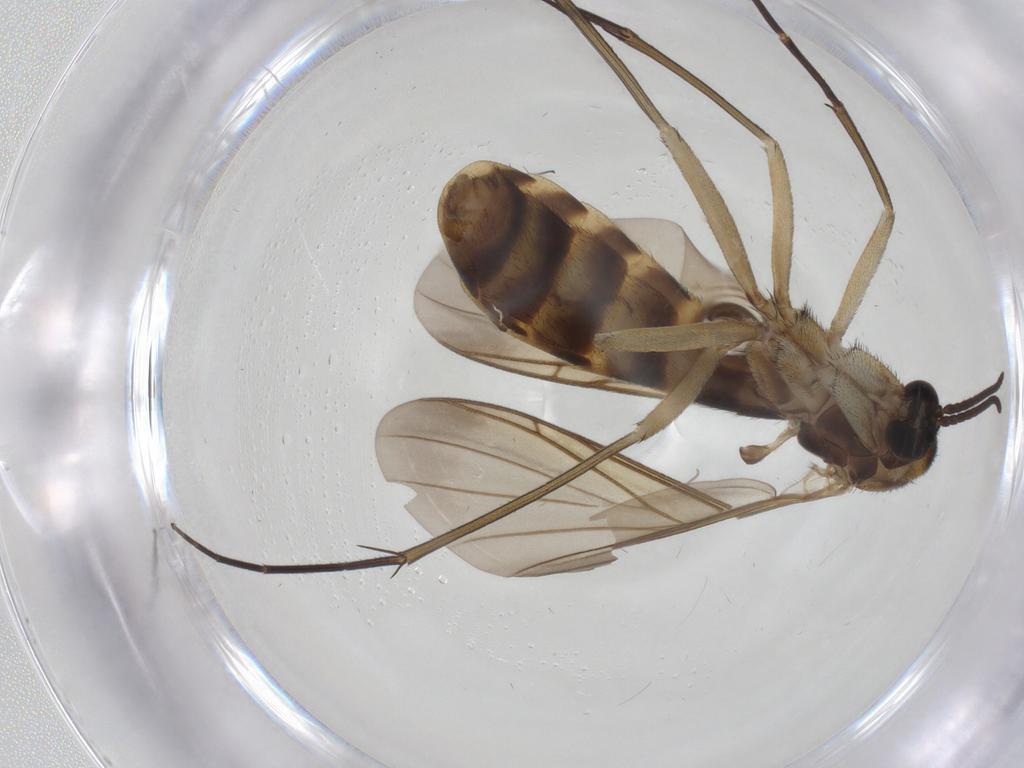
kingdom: Animalia
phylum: Arthropoda
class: Insecta
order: Diptera
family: Keroplatidae
